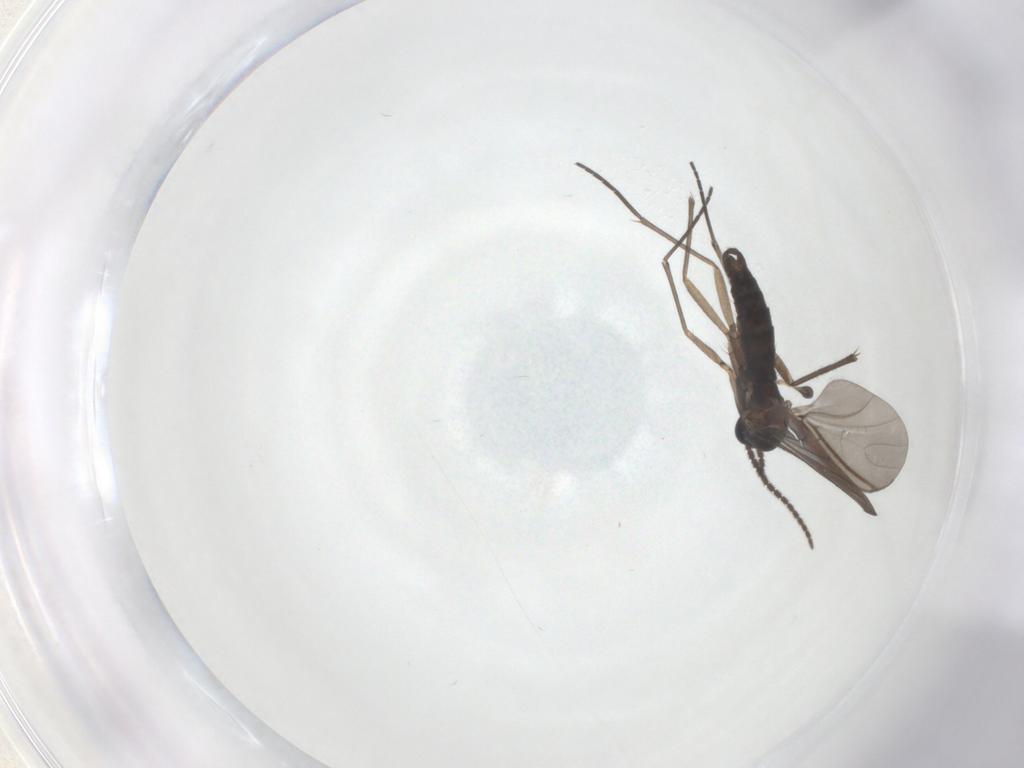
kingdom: Animalia
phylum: Arthropoda
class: Insecta
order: Diptera
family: Sciaridae
